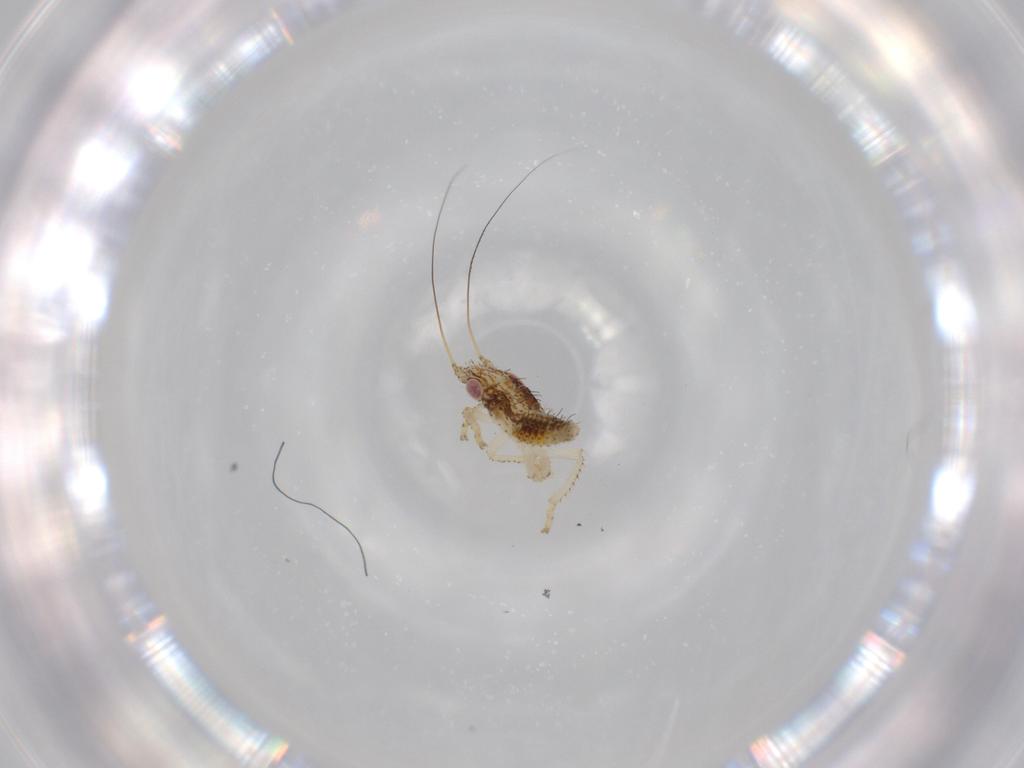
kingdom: Animalia
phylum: Arthropoda
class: Insecta
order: Hemiptera
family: Cicadellidae
